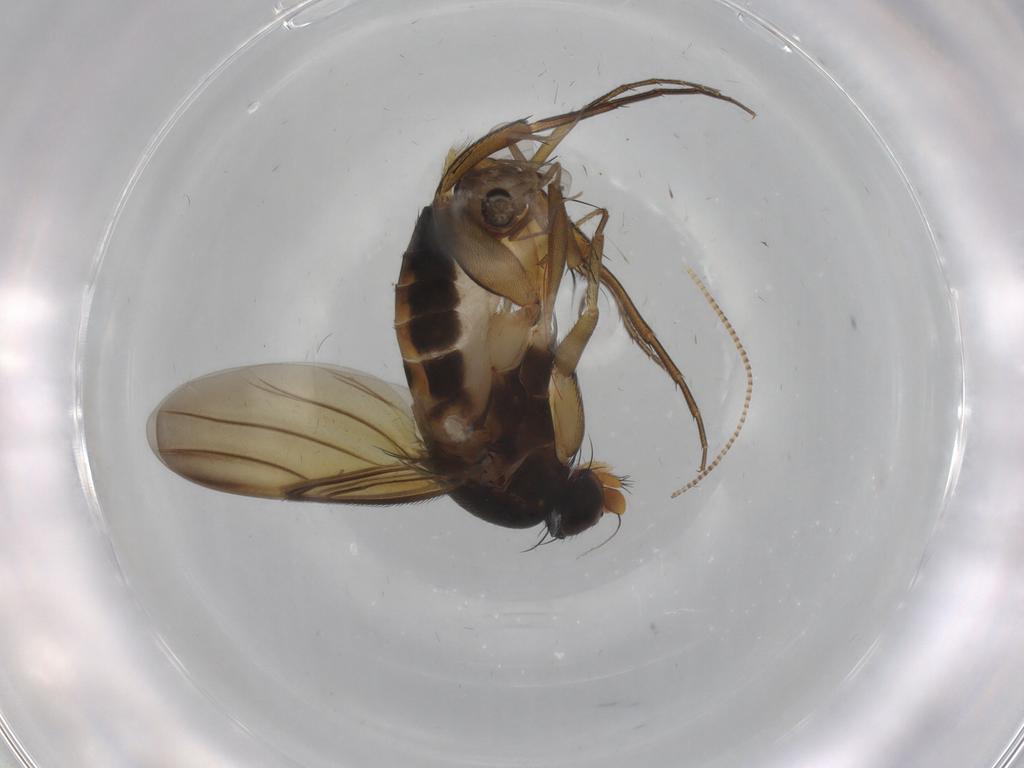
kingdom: Animalia
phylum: Arthropoda
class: Insecta
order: Diptera
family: Phoridae
